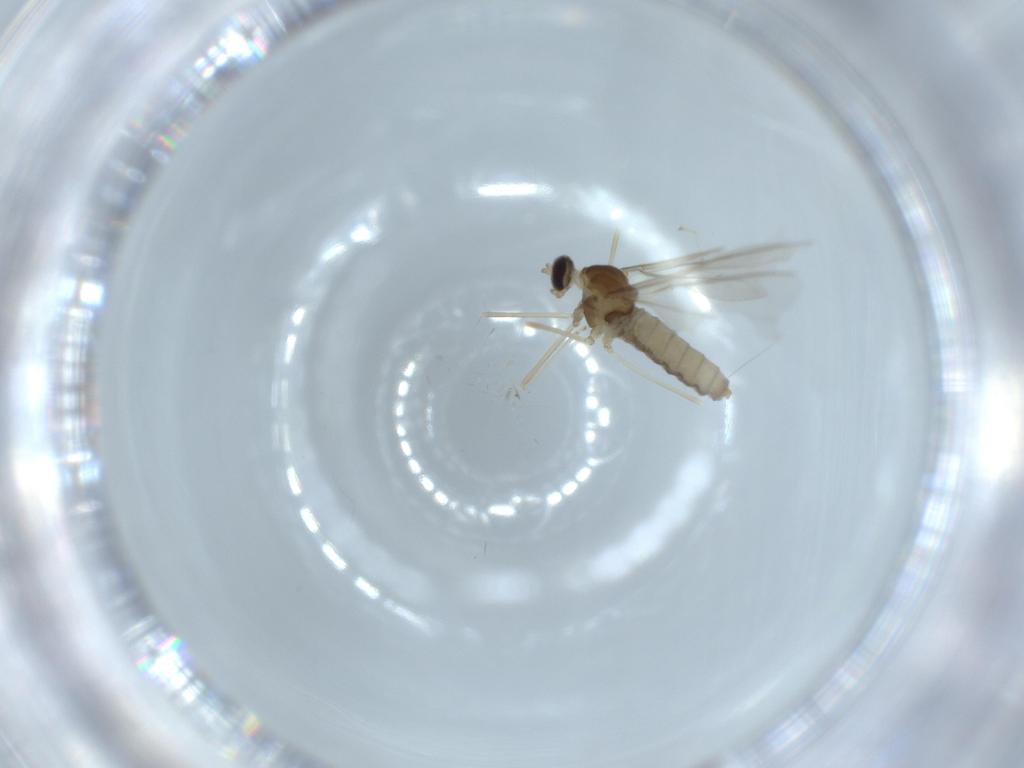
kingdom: Animalia
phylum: Arthropoda
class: Insecta
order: Diptera
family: Cecidomyiidae
